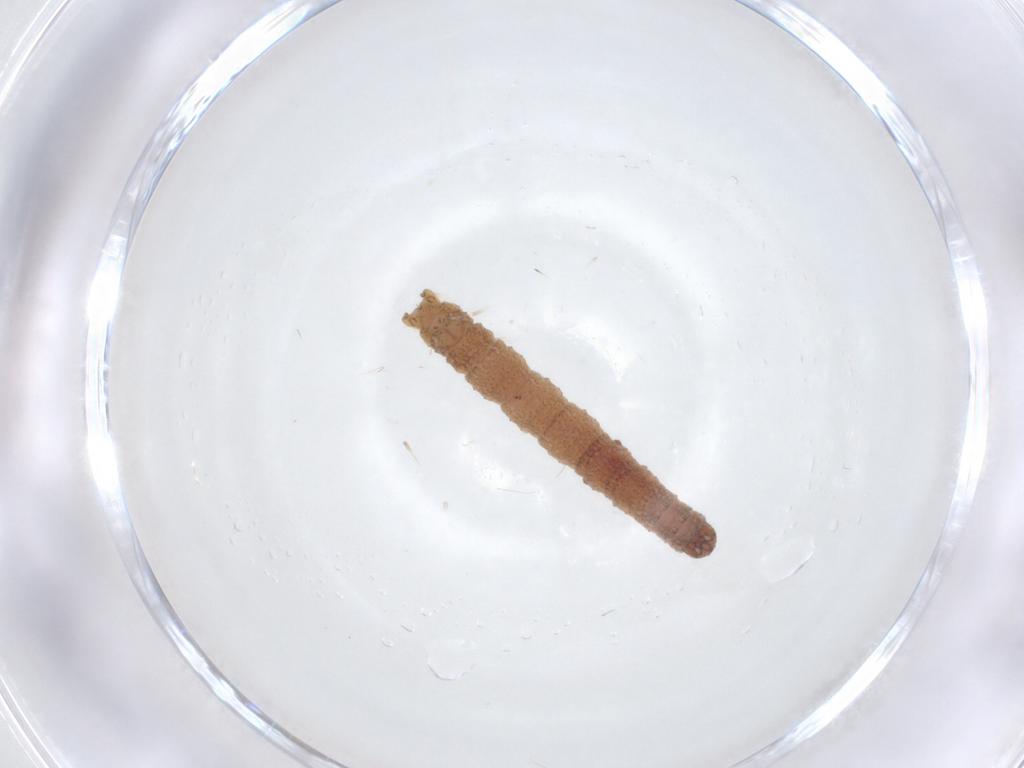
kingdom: Animalia
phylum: Arthropoda
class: Insecta
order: Lepidoptera
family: Geometridae
